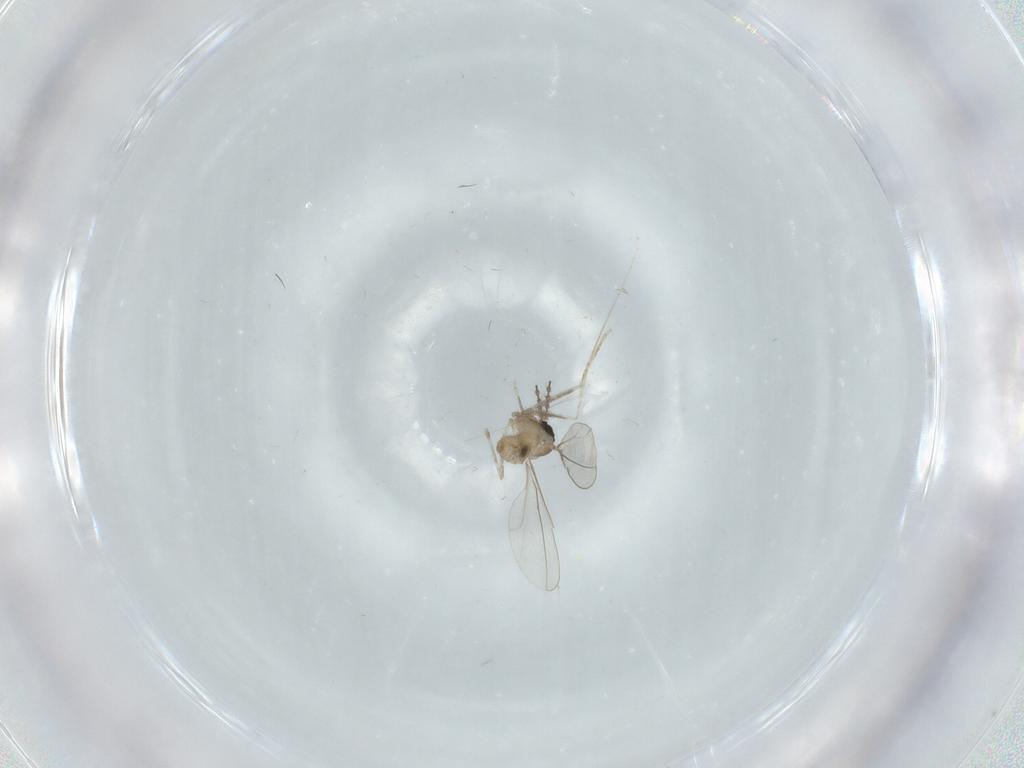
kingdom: Animalia
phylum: Arthropoda
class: Insecta
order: Diptera
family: Cecidomyiidae
